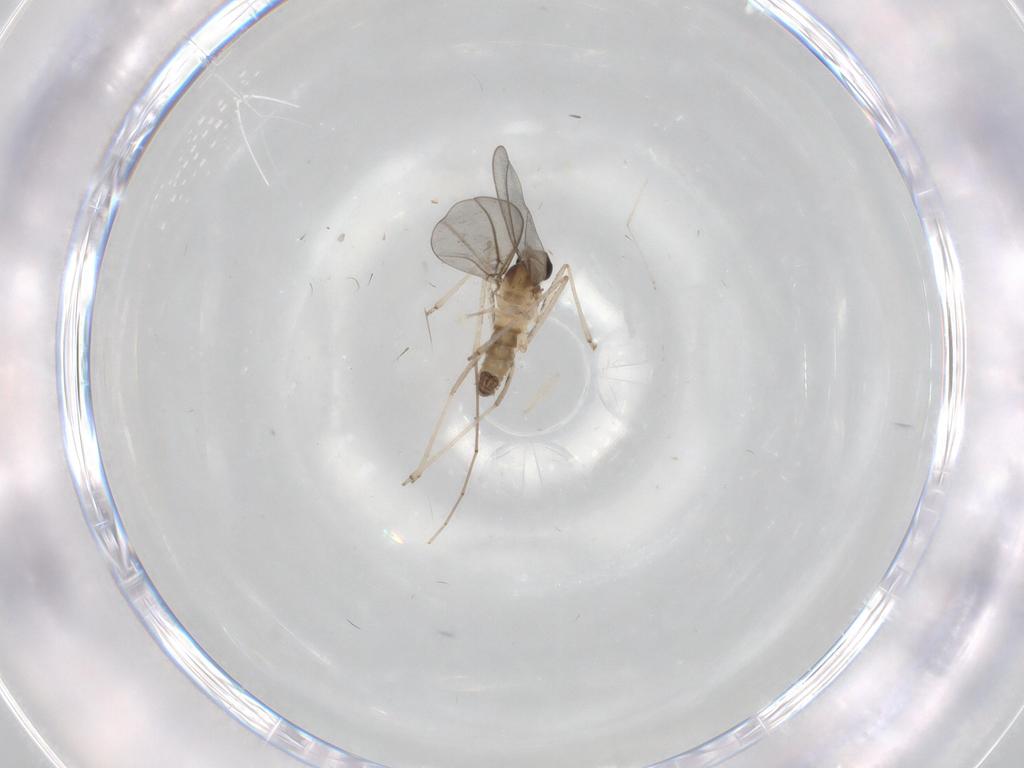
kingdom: Animalia
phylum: Arthropoda
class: Insecta
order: Diptera
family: Cecidomyiidae
